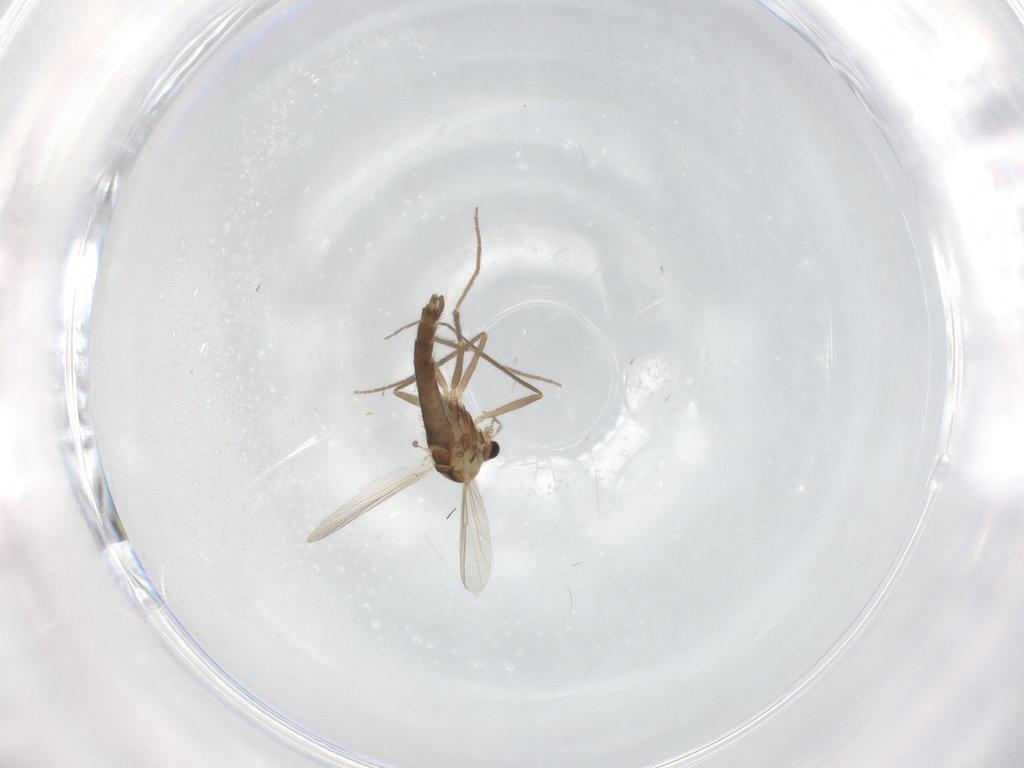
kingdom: Animalia
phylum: Arthropoda
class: Insecta
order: Diptera
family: Chironomidae
